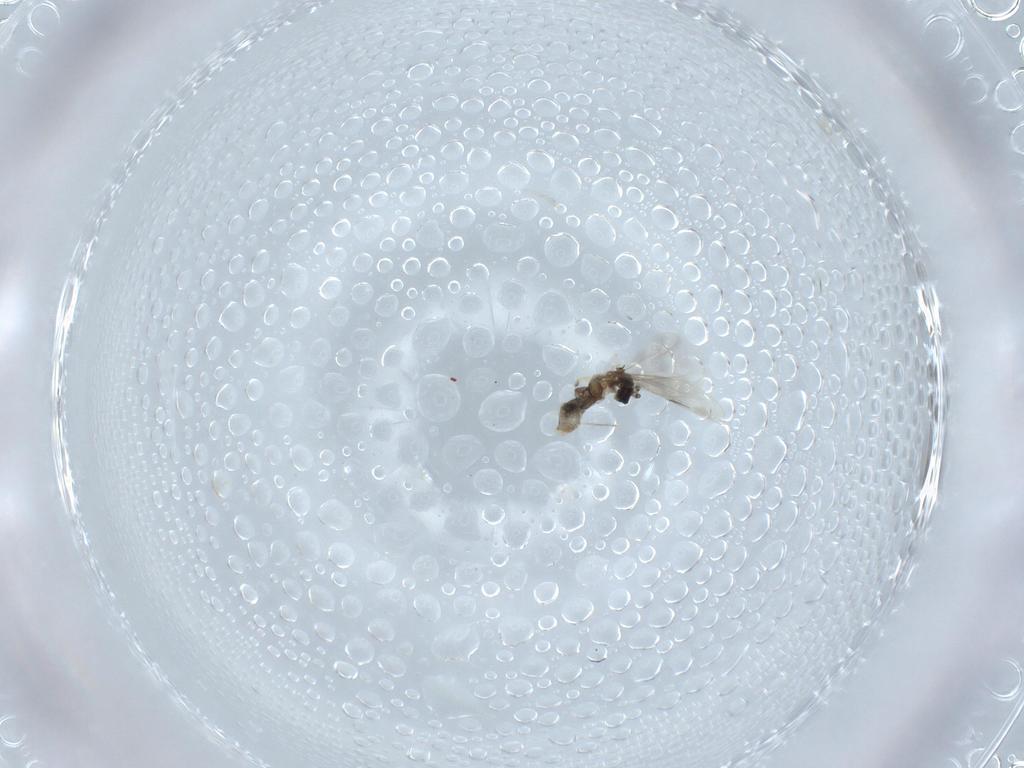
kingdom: Animalia
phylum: Arthropoda
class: Insecta
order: Diptera
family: Cecidomyiidae
